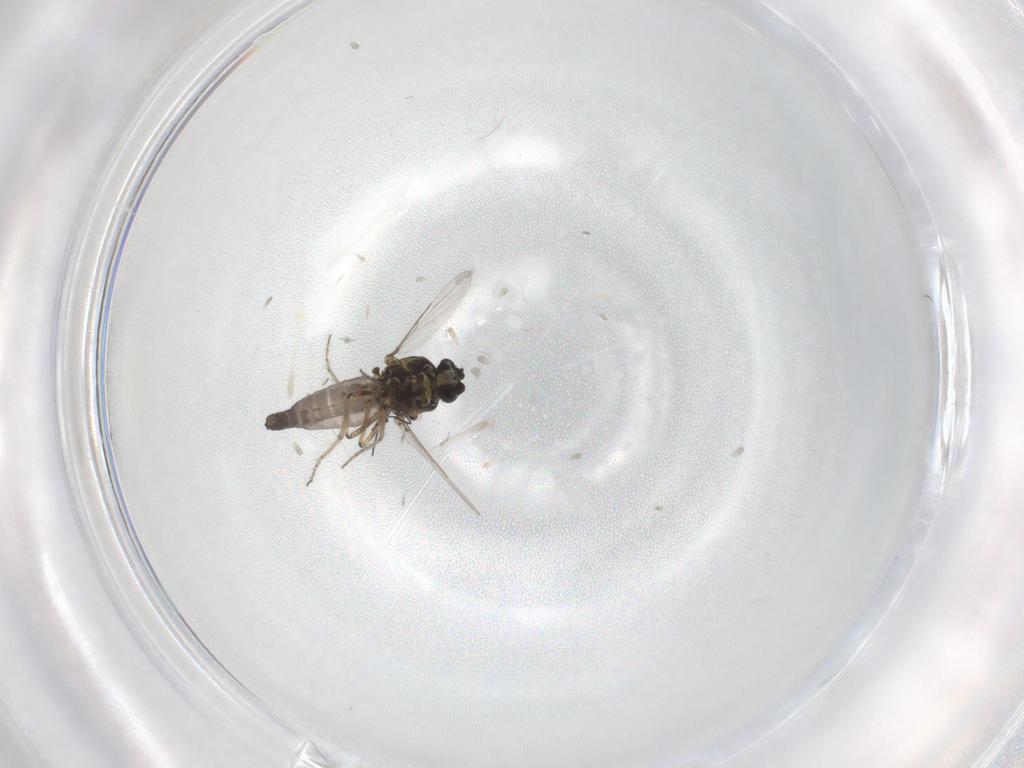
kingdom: Animalia
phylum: Arthropoda
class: Insecta
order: Diptera
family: Ceratopogonidae
